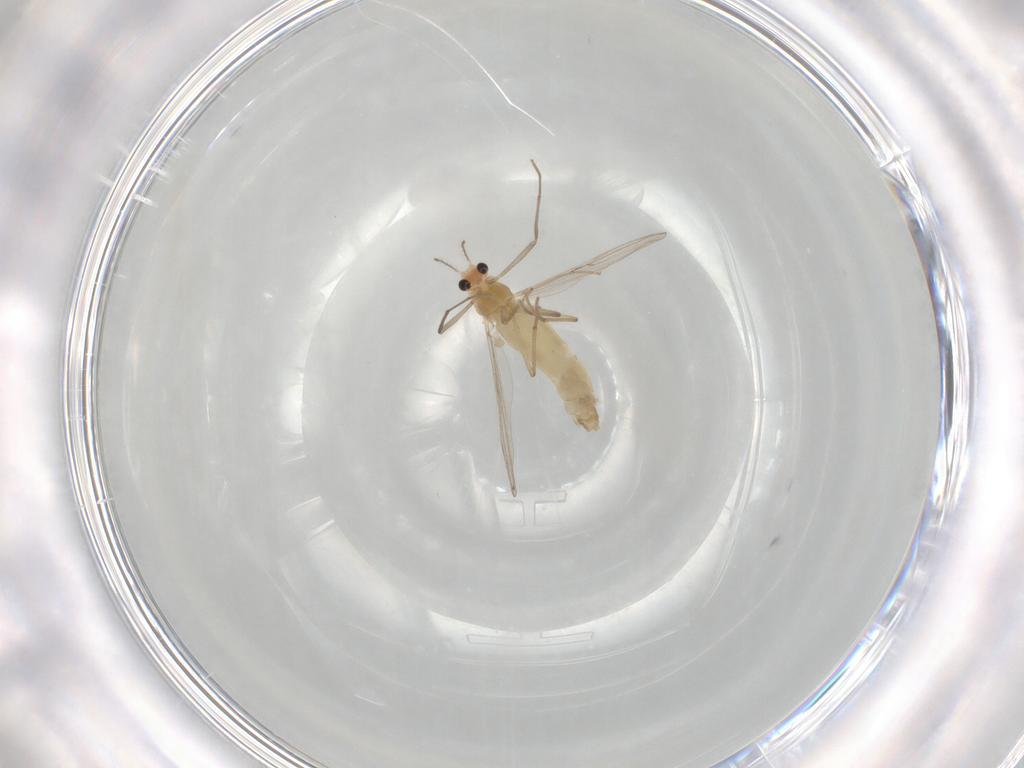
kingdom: Animalia
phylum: Arthropoda
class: Insecta
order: Diptera
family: Chironomidae
